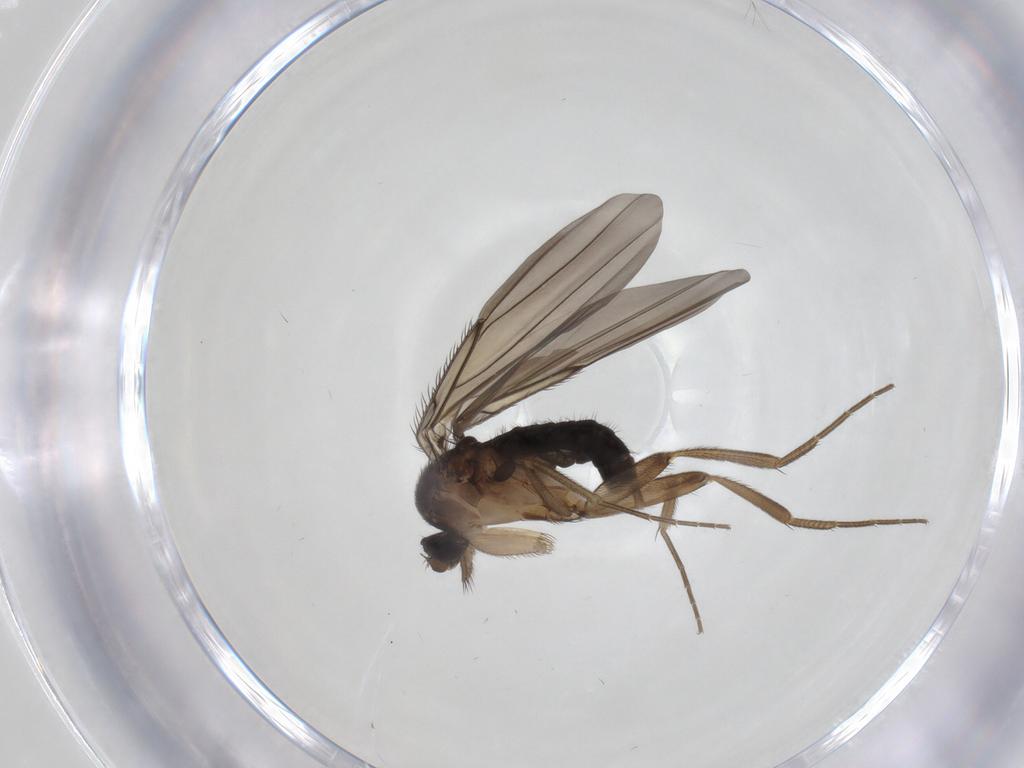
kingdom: Animalia
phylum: Arthropoda
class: Insecta
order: Diptera
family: Phoridae
